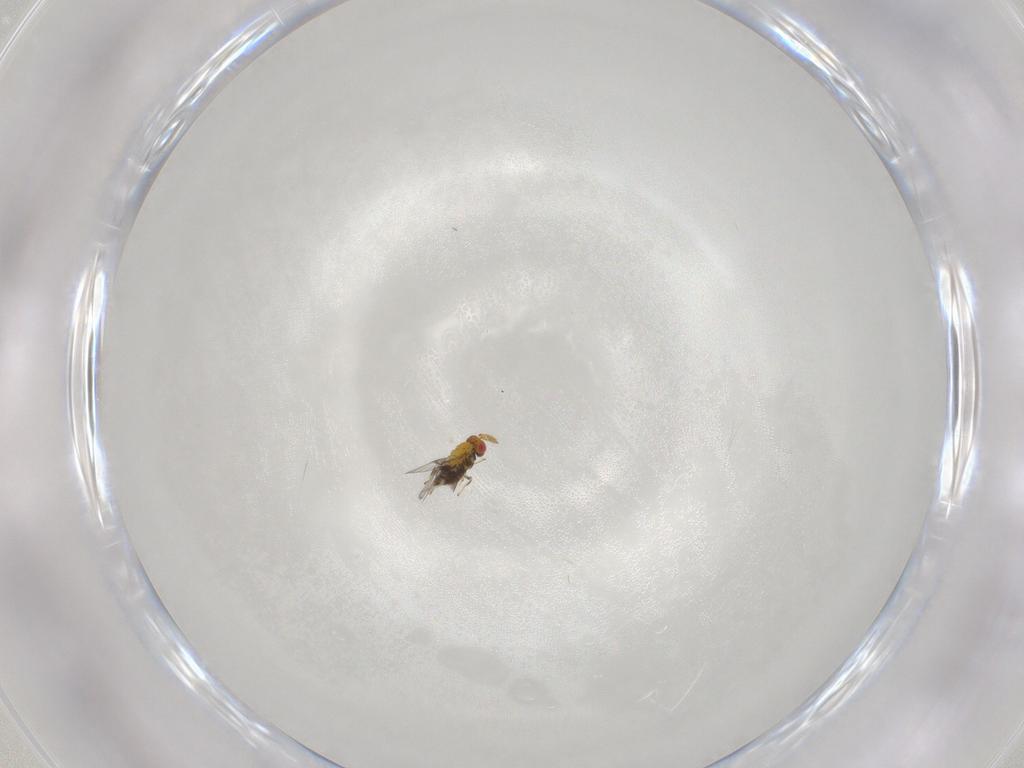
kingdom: Animalia
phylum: Arthropoda
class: Insecta
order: Hymenoptera
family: Trichogrammatidae
